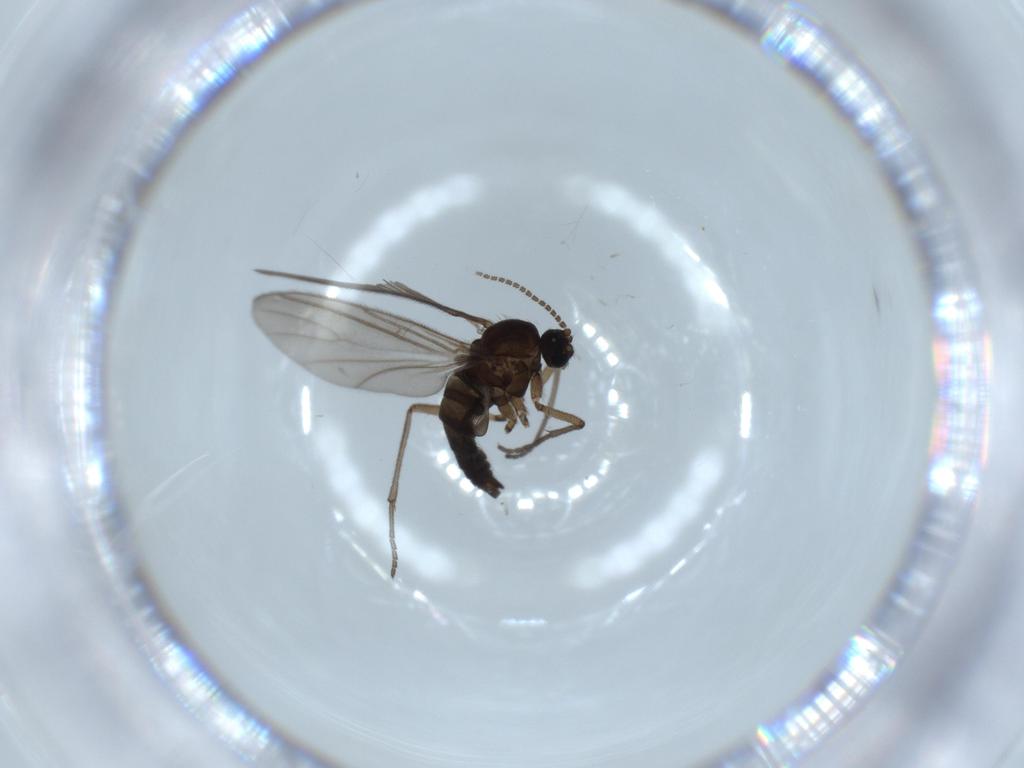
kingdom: Animalia
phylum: Arthropoda
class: Insecta
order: Diptera
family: Sciaridae
